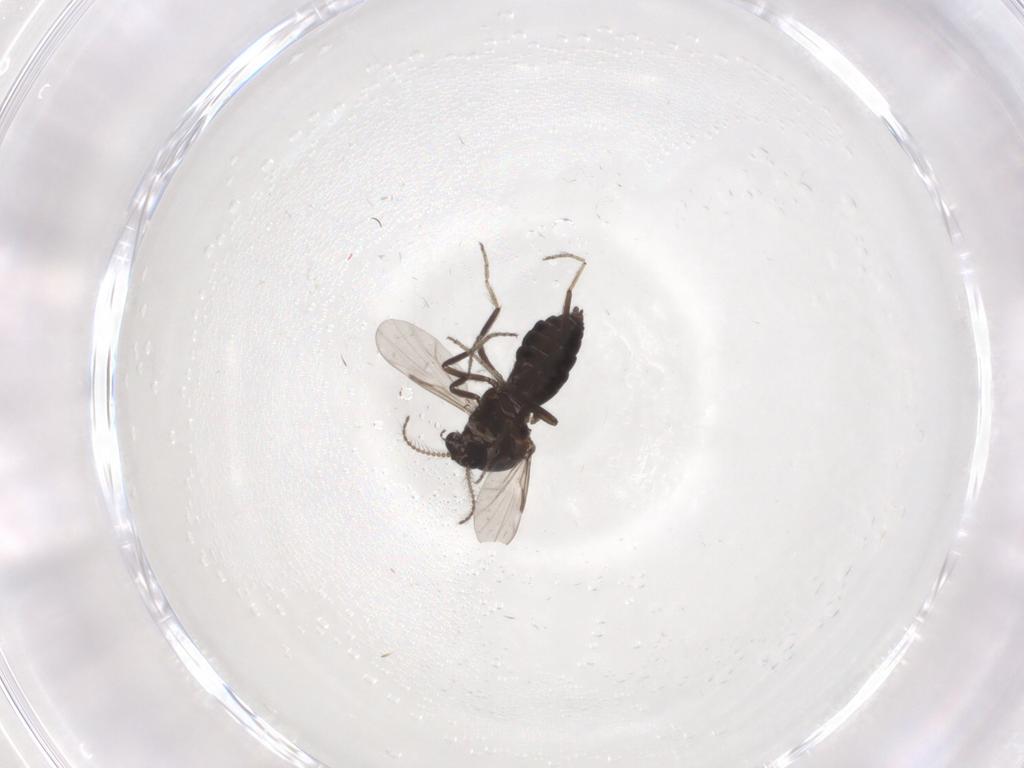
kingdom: Animalia
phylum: Arthropoda
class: Insecta
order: Diptera
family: Ceratopogonidae
